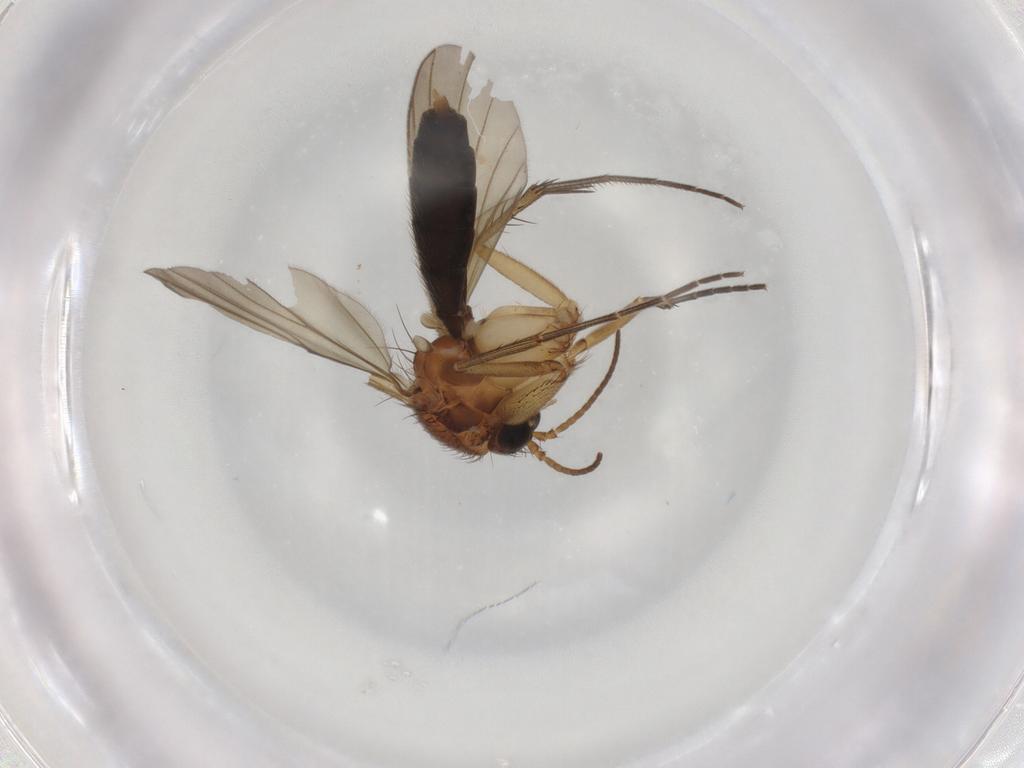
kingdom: Animalia
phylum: Arthropoda
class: Insecta
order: Diptera
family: Mycetophilidae
